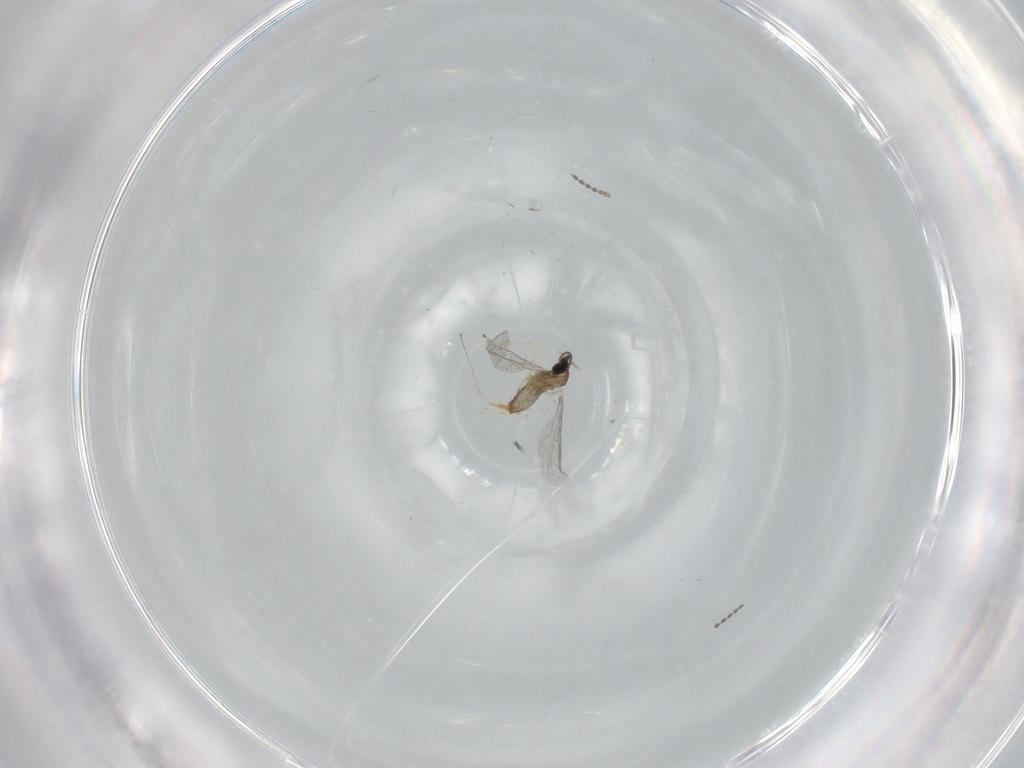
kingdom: Animalia
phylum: Arthropoda
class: Insecta
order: Diptera
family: Cecidomyiidae
